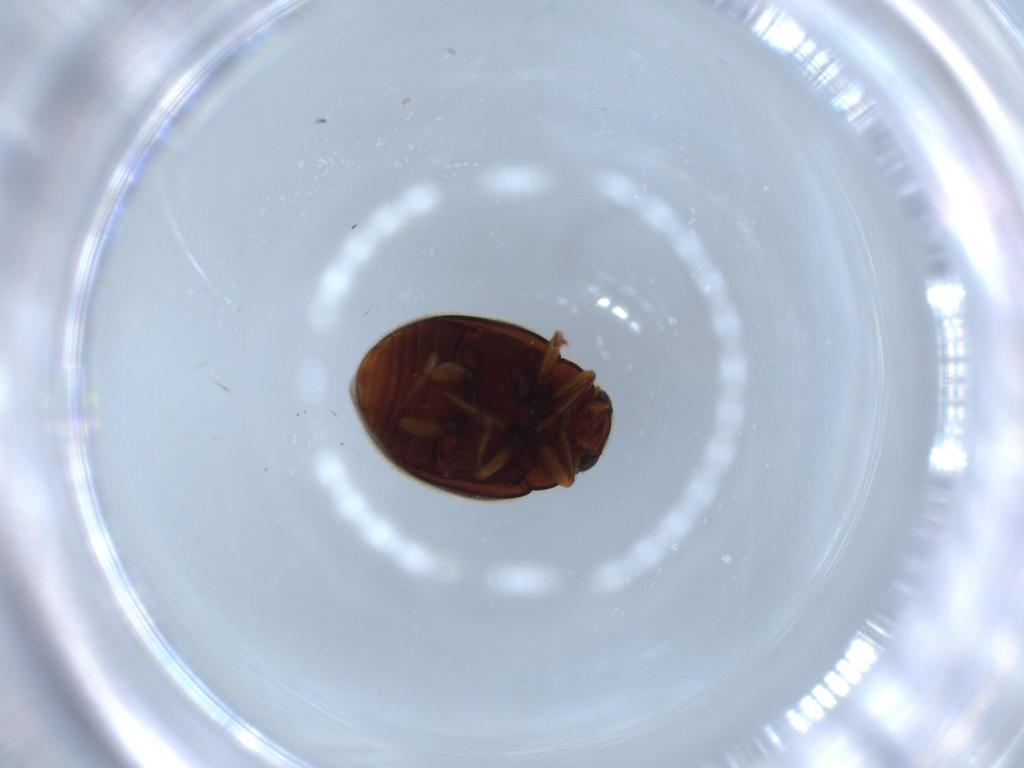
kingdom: Animalia
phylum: Arthropoda
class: Insecta
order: Coleoptera
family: Coccinellidae
